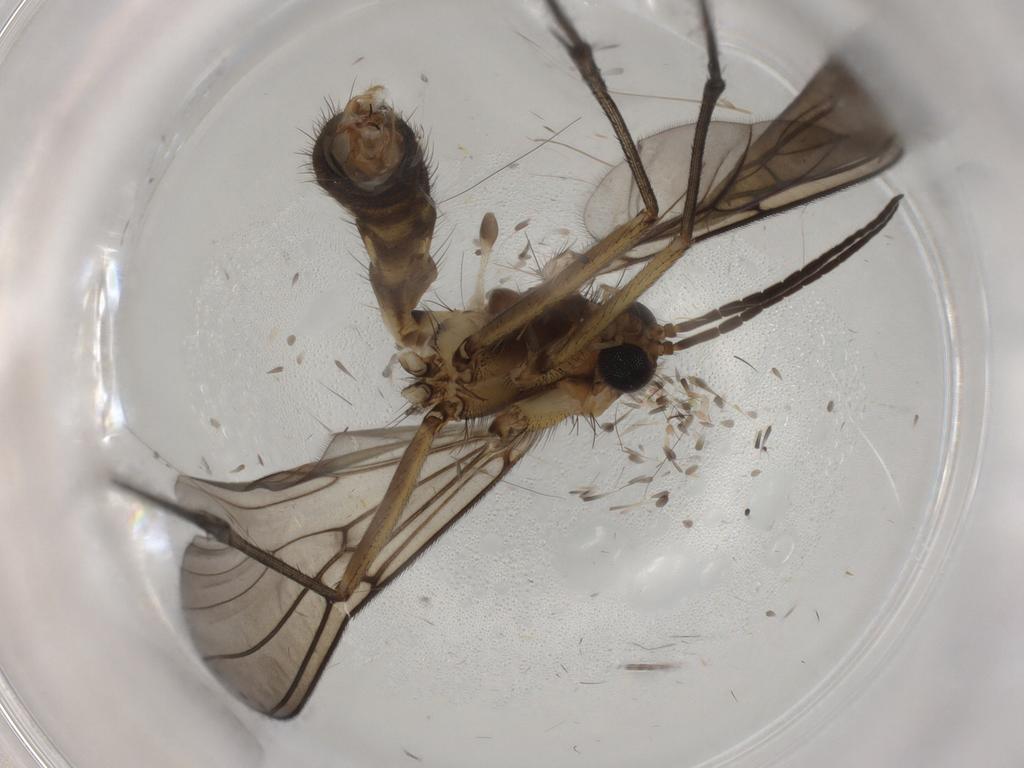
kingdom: Animalia
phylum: Arthropoda
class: Insecta
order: Diptera
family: Mycetophilidae
